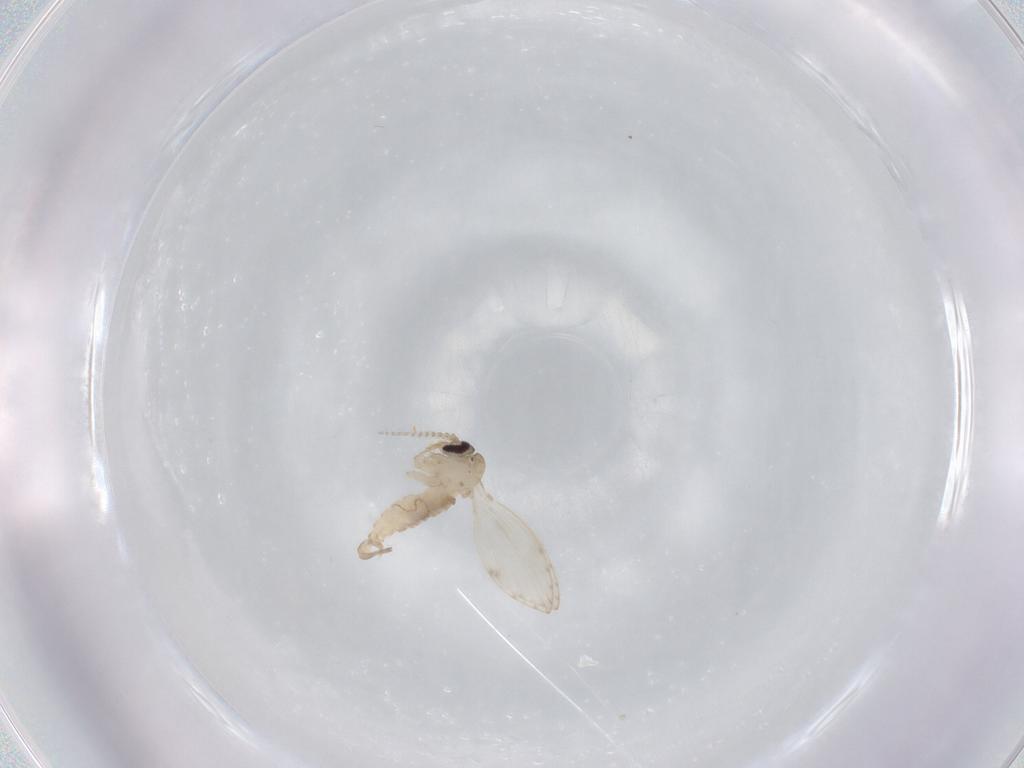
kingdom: Animalia
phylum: Arthropoda
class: Insecta
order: Diptera
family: Psychodidae
